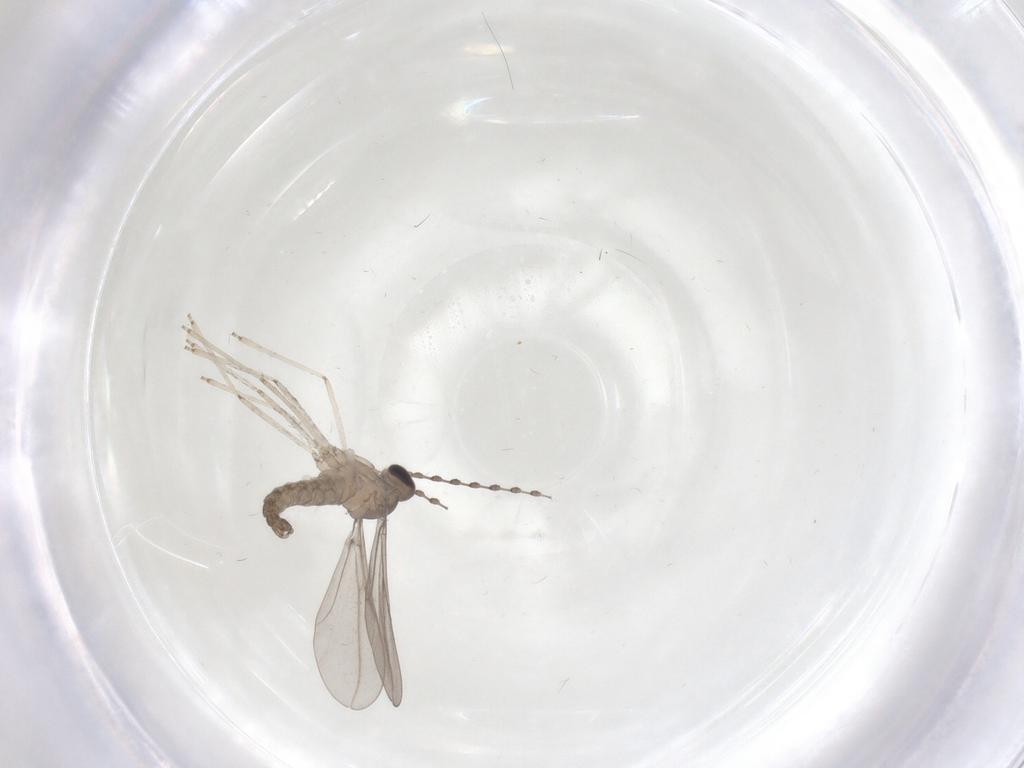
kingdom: Animalia
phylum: Arthropoda
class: Insecta
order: Diptera
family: Cecidomyiidae
